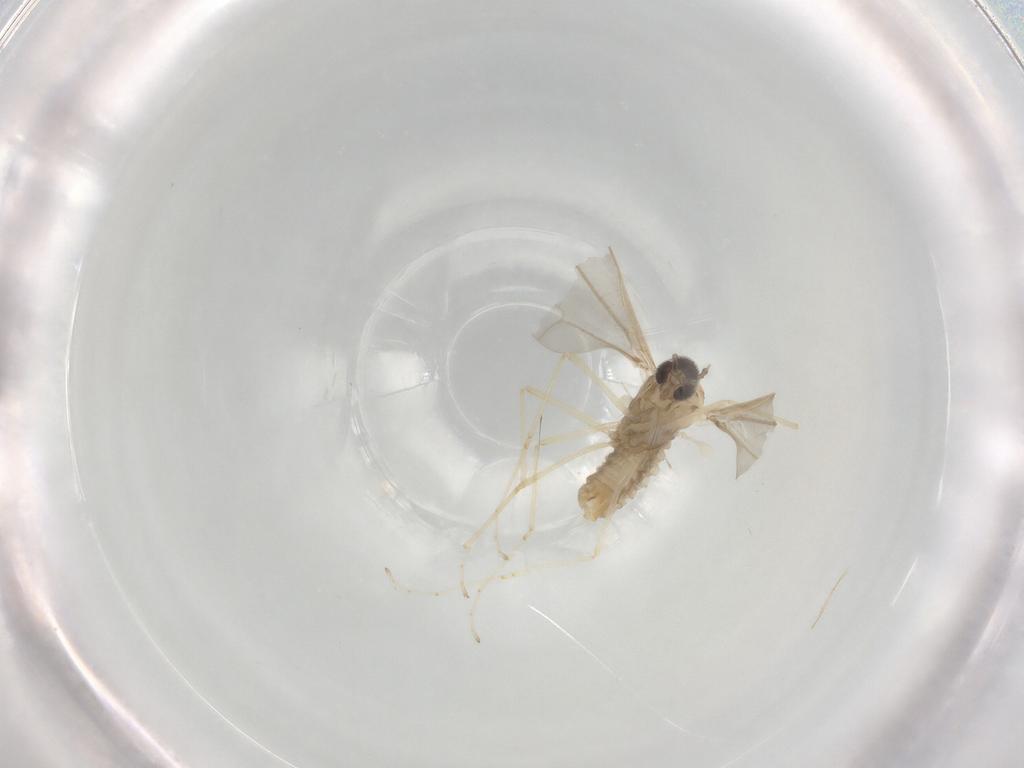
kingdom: Animalia
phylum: Arthropoda
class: Insecta
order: Diptera
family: Cecidomyiidae
